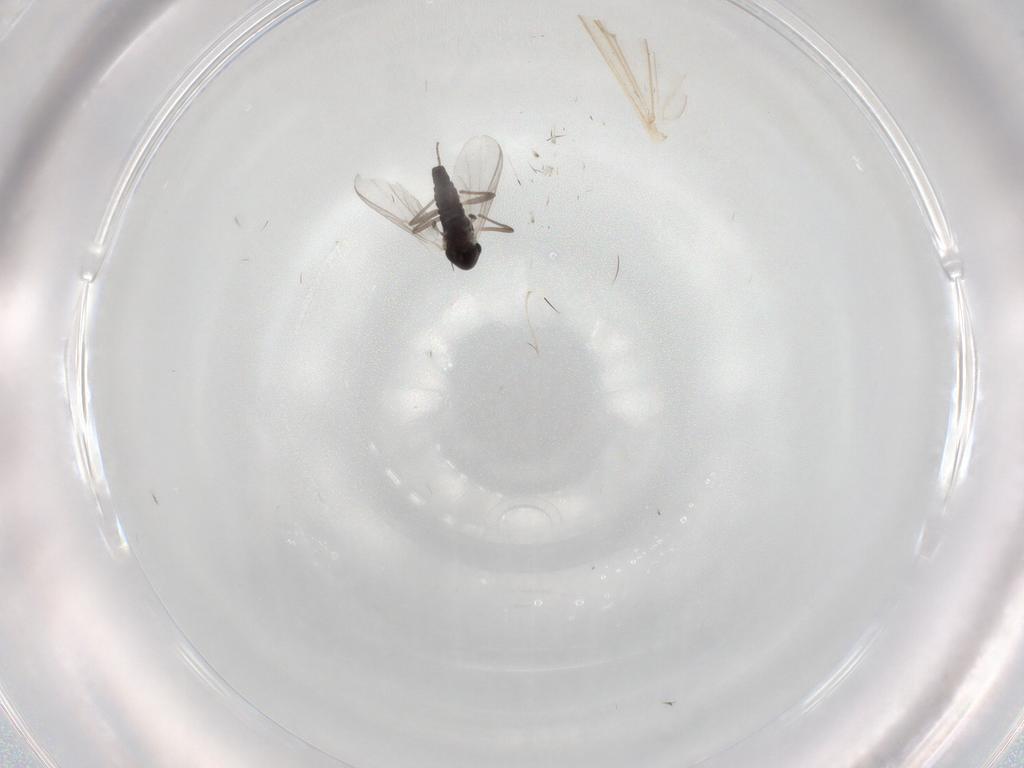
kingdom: Animalia
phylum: Arthropoda
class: Insecta
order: Diptera
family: Chironomidae
